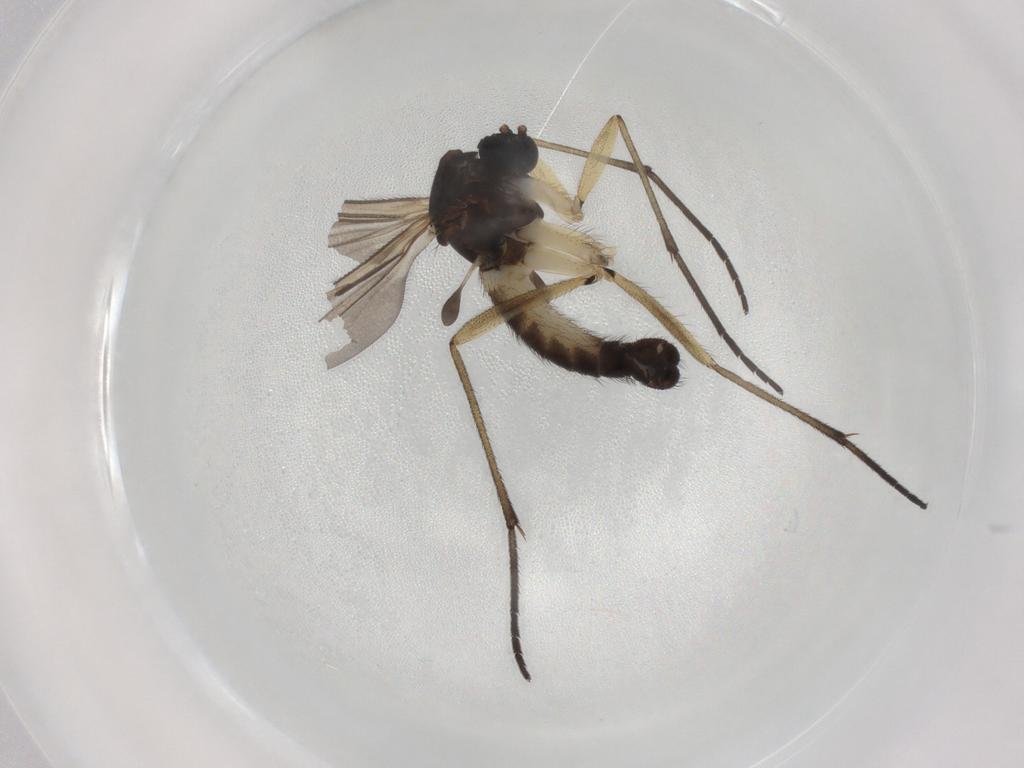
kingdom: Animalia
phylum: Arthropoda
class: Insecta
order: Diptera
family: Sciaridae
